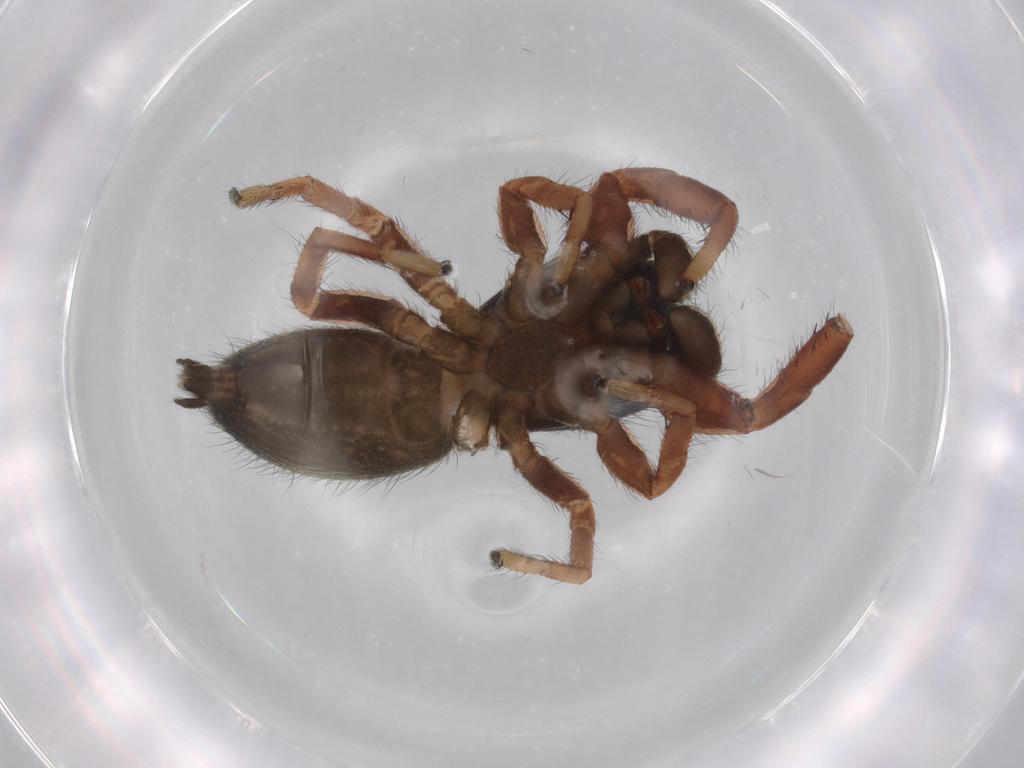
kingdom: Animalia
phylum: Arthropoda
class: Arachnida
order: Araneae
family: Salticidae
